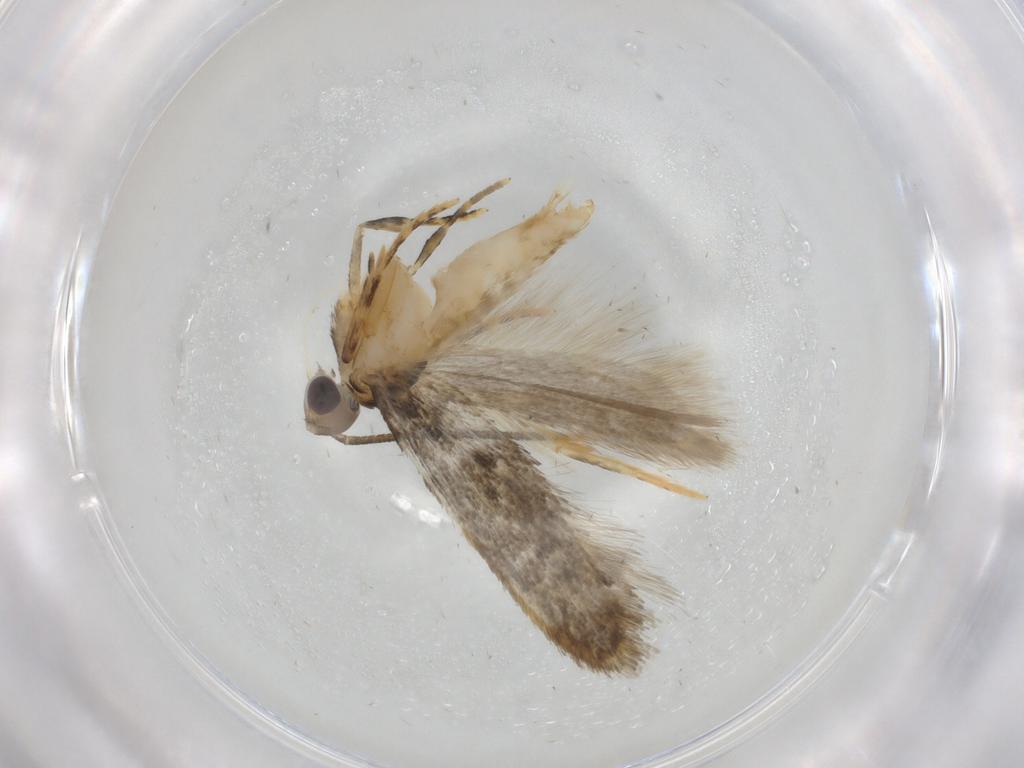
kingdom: Animalia
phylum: Arthropoda
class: Insecta
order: Lepidoptera
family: Autostichidae
